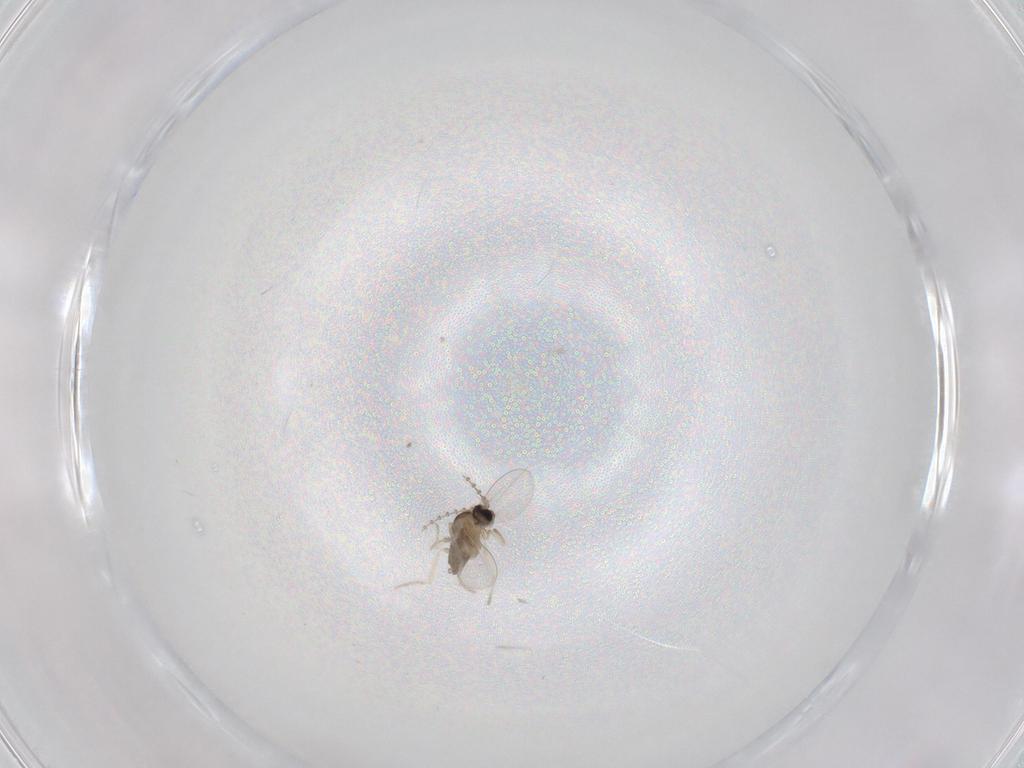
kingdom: Animalia
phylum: Arthropoda
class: Insecta
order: Diptera
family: Cecidomyiidae
